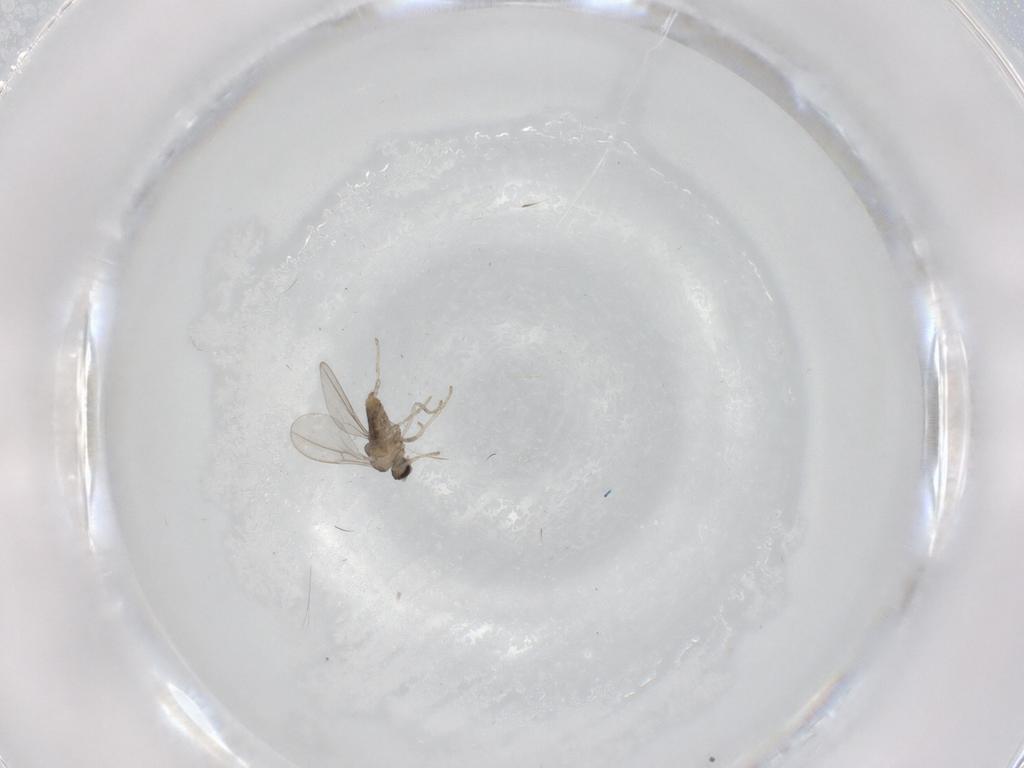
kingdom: Animalia
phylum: Arthropoda
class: Insecta
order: Diptera
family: Cecidomyiidae
